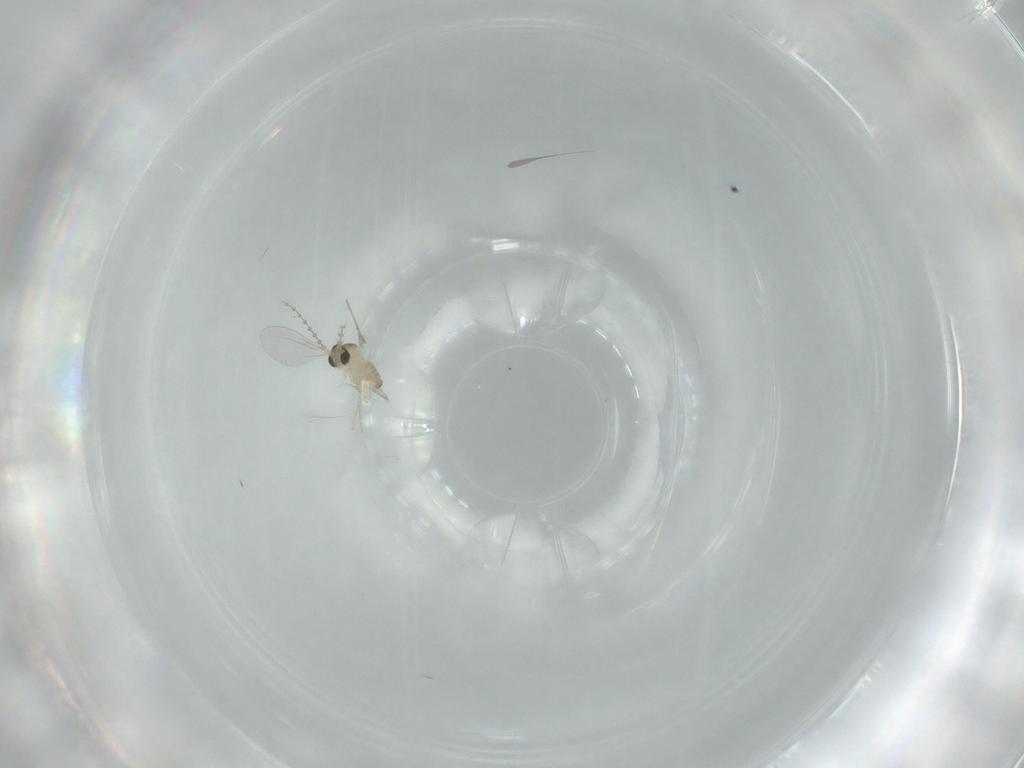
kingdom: Animalia
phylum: Arthropoda
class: Insecta
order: Diptera
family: Cecidomyiidae
